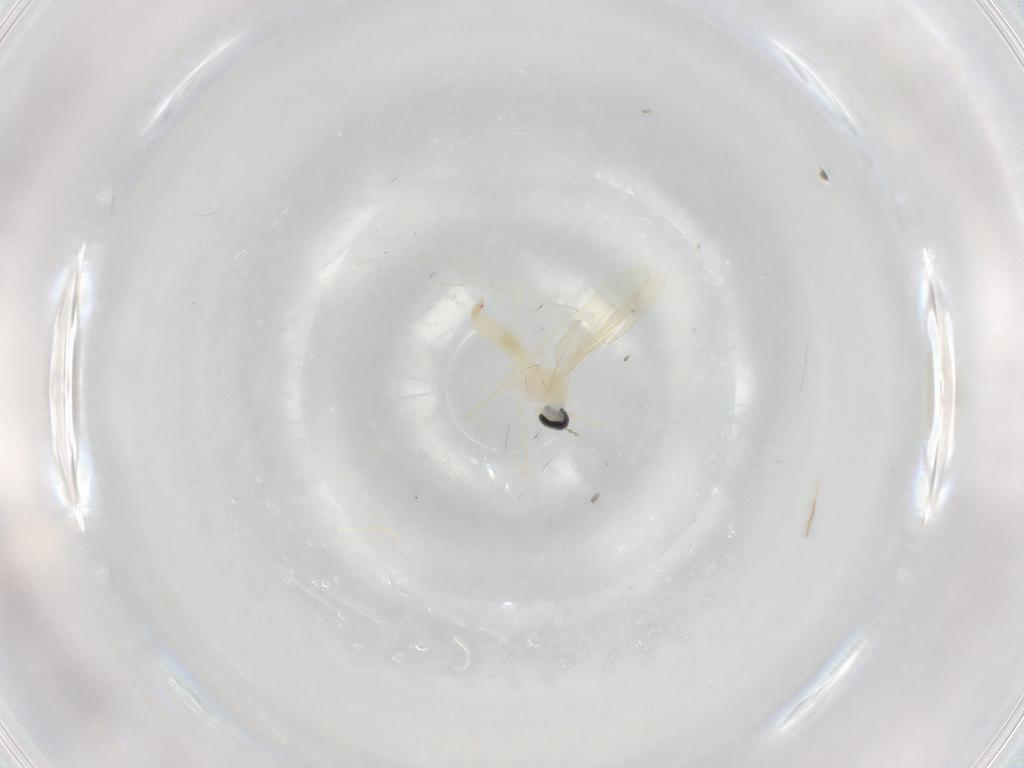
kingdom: Animalia
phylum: Arthropoda
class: Insecta
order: Diptera
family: Cecidomyiidae
